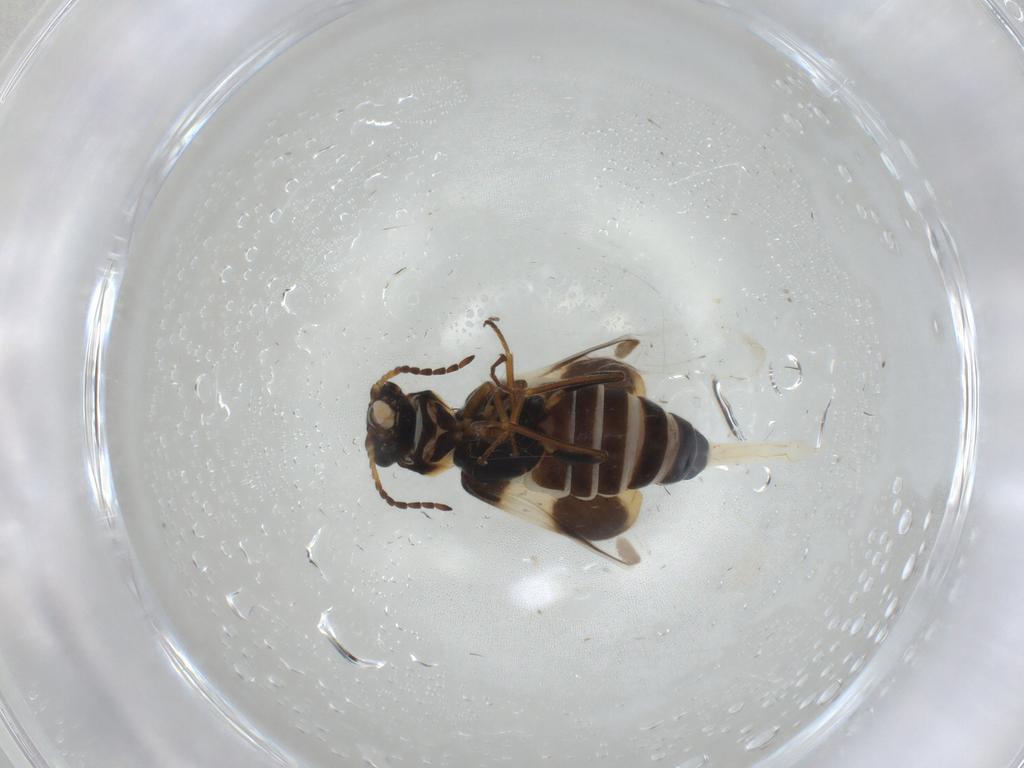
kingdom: Animalia
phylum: Arthropoda
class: Insecta
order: Coleoptera
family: Melyridae
